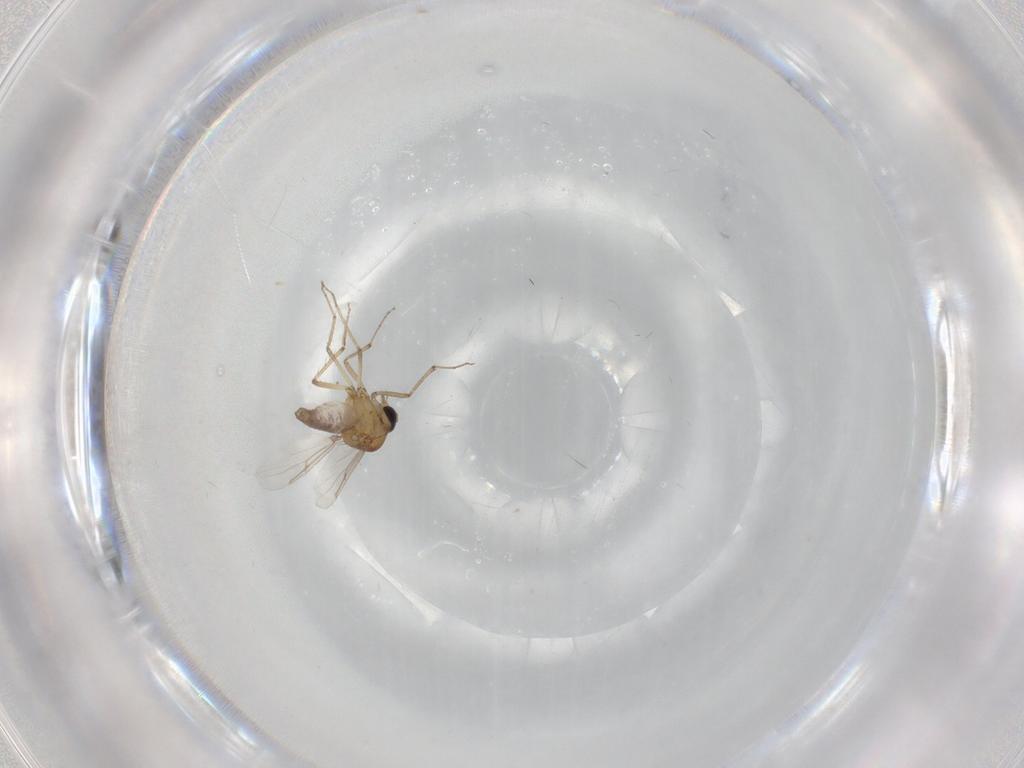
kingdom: Animalia
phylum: Arthropoda
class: Insecta
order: Diptera
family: Ceratopogonidae
